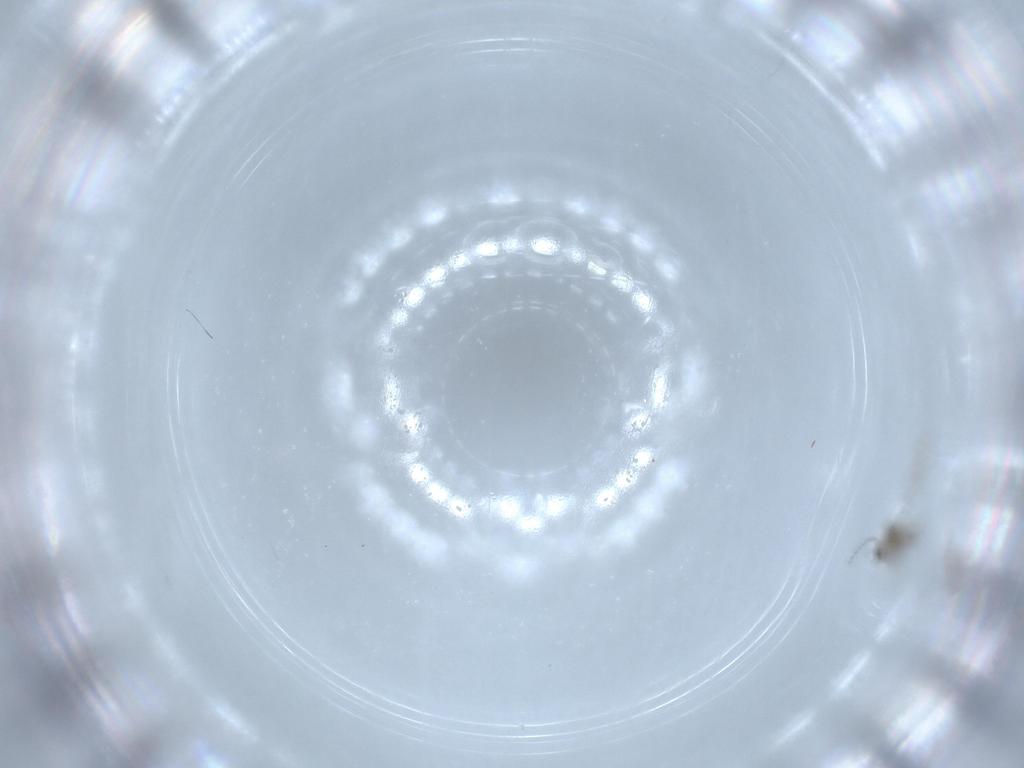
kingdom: Animalia
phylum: Arthropoda
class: Insecta
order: Diptera
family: Cecidomyiidae
